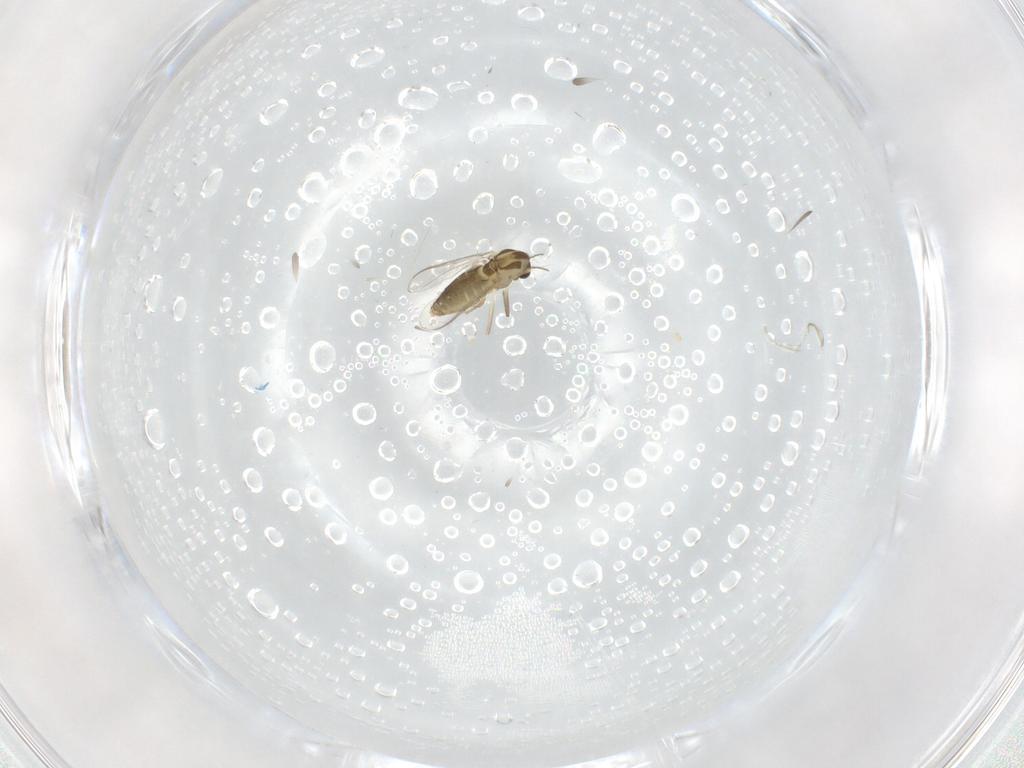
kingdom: Animalia
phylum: Arthropoda
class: Insecta
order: Diptera
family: Chironomidae
